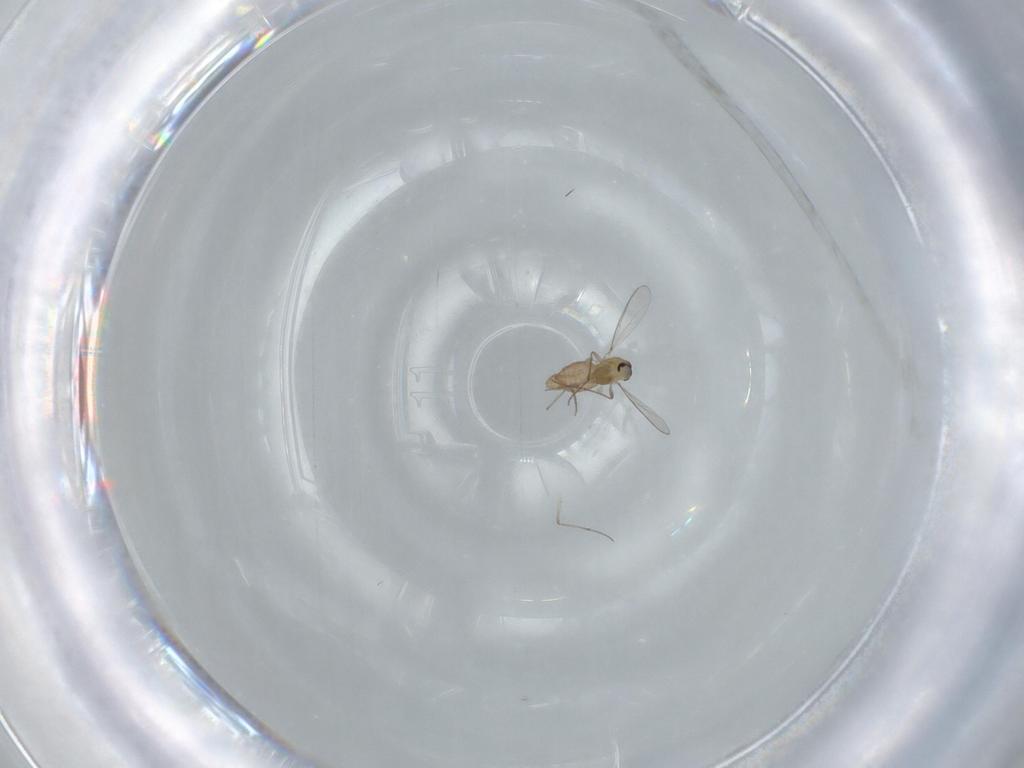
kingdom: Animalia
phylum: Arthropoda
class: Insecta
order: Diptera
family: Chironomidae
